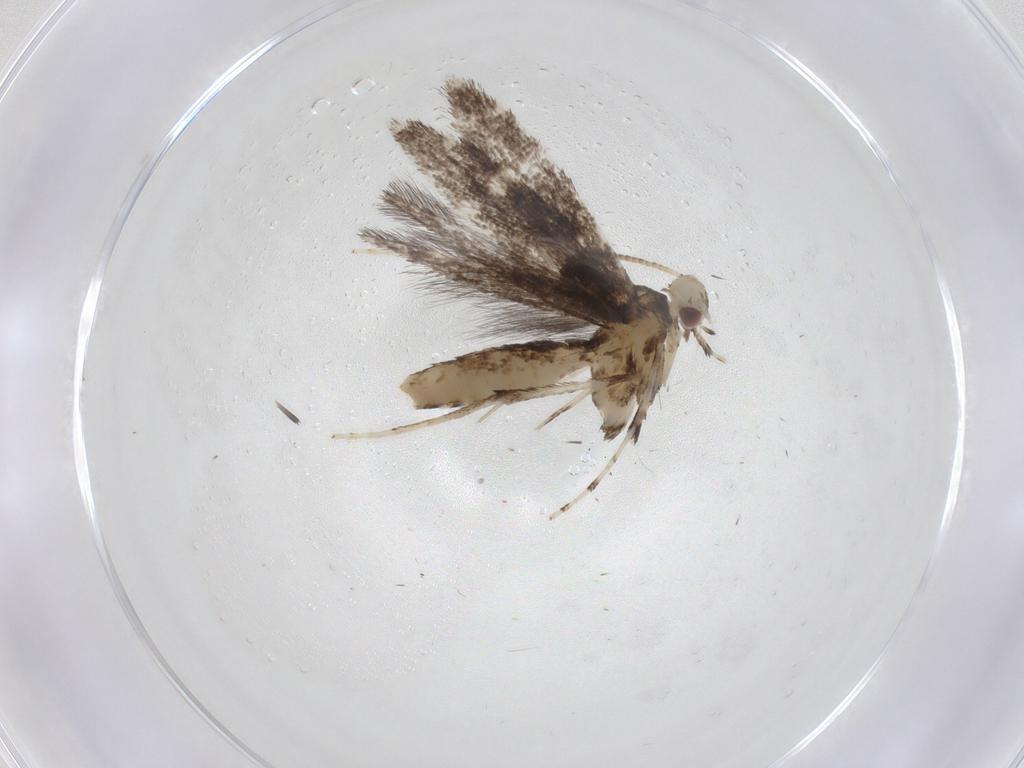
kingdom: Animalia
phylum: Arthropoda
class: Insecta
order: Lepidoptera
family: Gracillariidae
